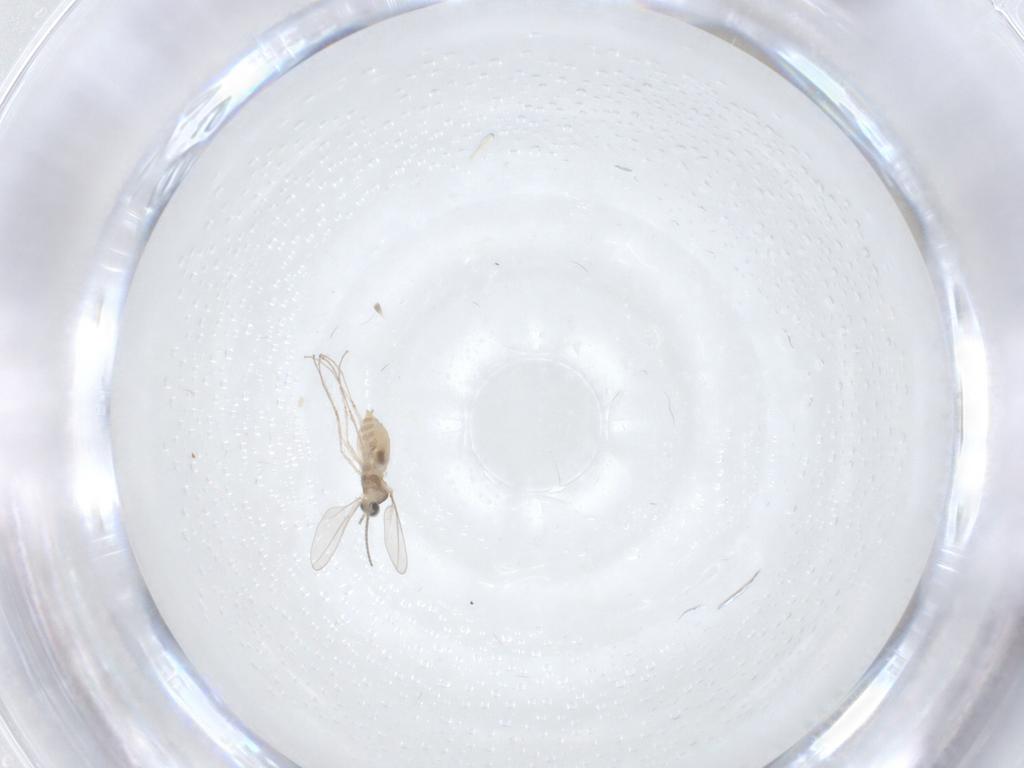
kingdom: Animalia
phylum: Arthropoda
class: Insecta
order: Diptera
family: Cecidomyiidae
